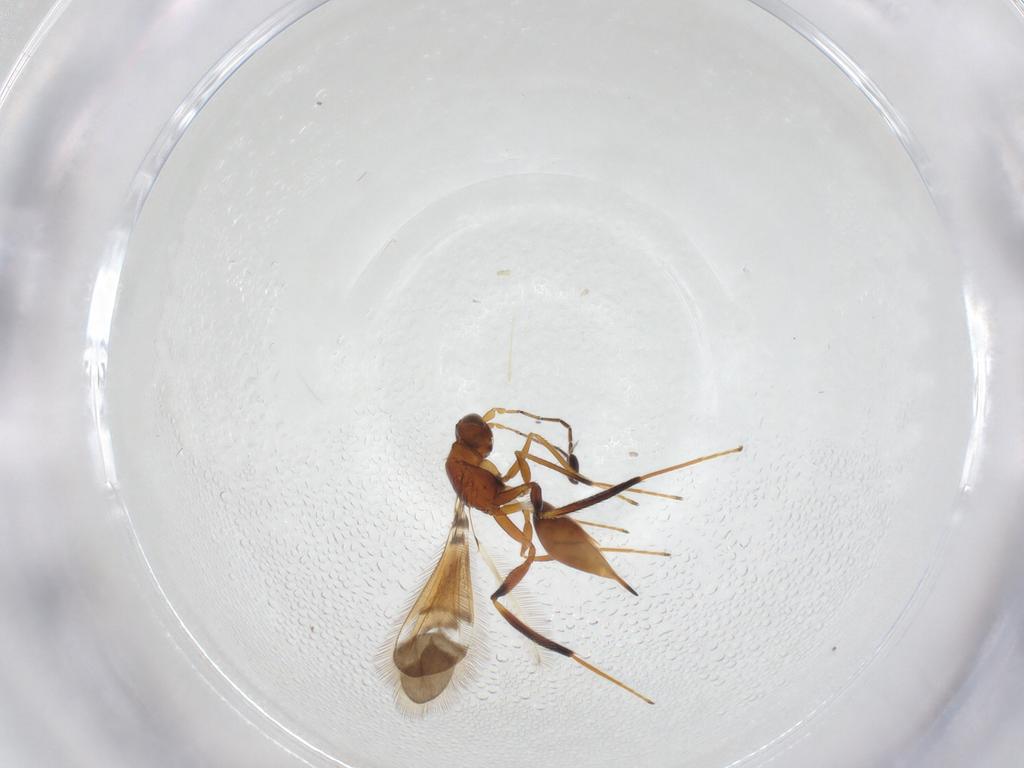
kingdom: Animalia
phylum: Arthropoda
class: Insecta
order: Hymenoptera
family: Mymaridae
